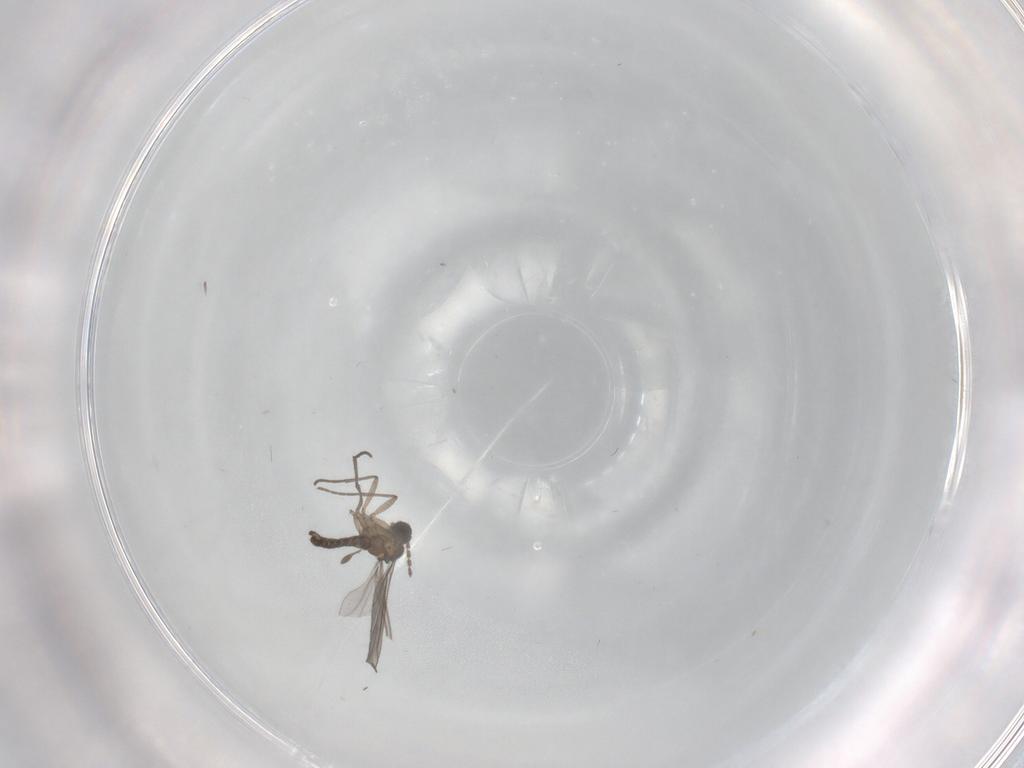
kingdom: Animalia
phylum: Arthropoda
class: Insecta
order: Diptera
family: Sciaridae
